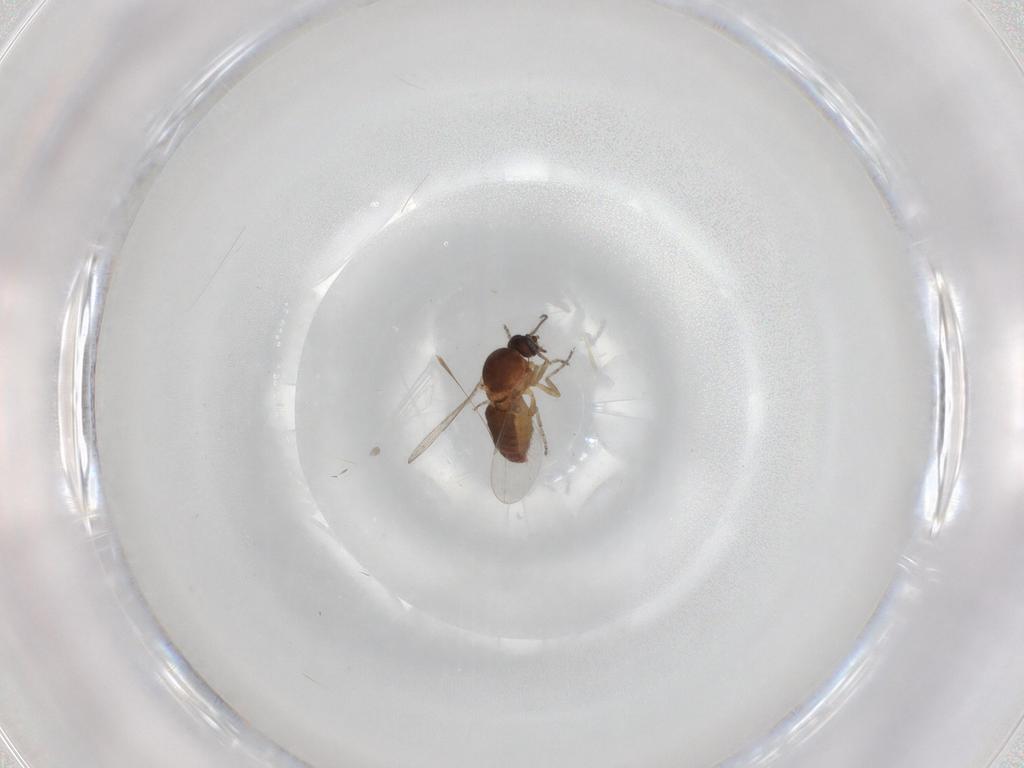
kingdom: Animalia
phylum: Arthropoda
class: Insecta
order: Diptera
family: Ceratopogonidae
